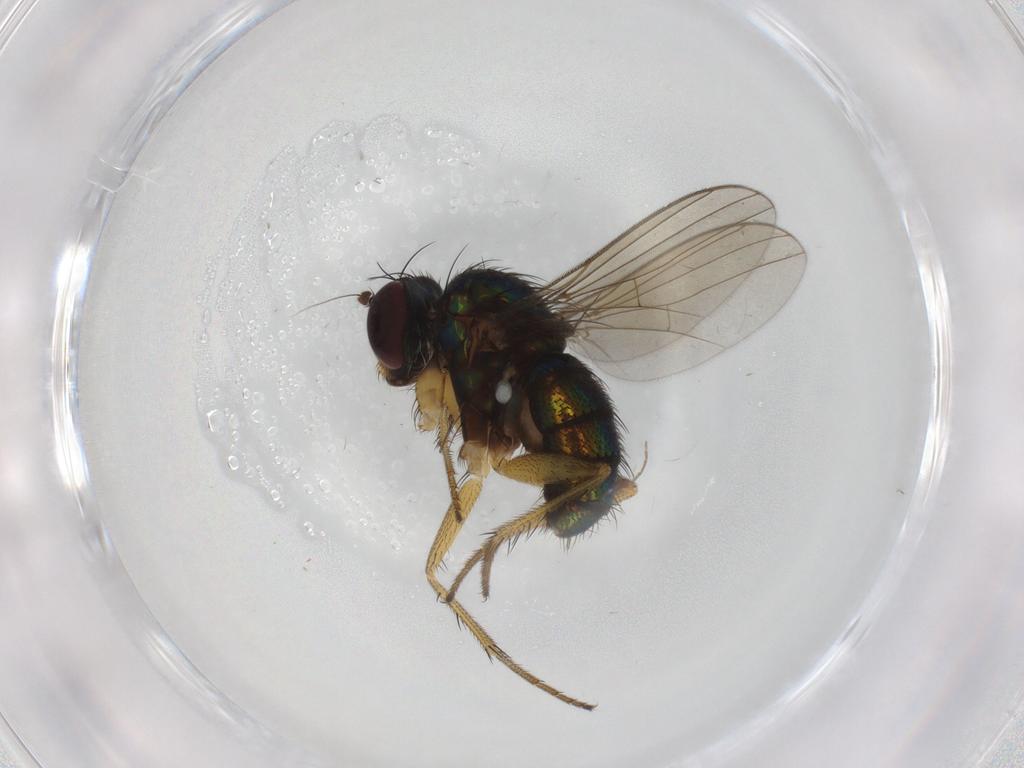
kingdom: Animalia
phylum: Arthropoda
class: Insecta
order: Diptera
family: Dolichopodidae
